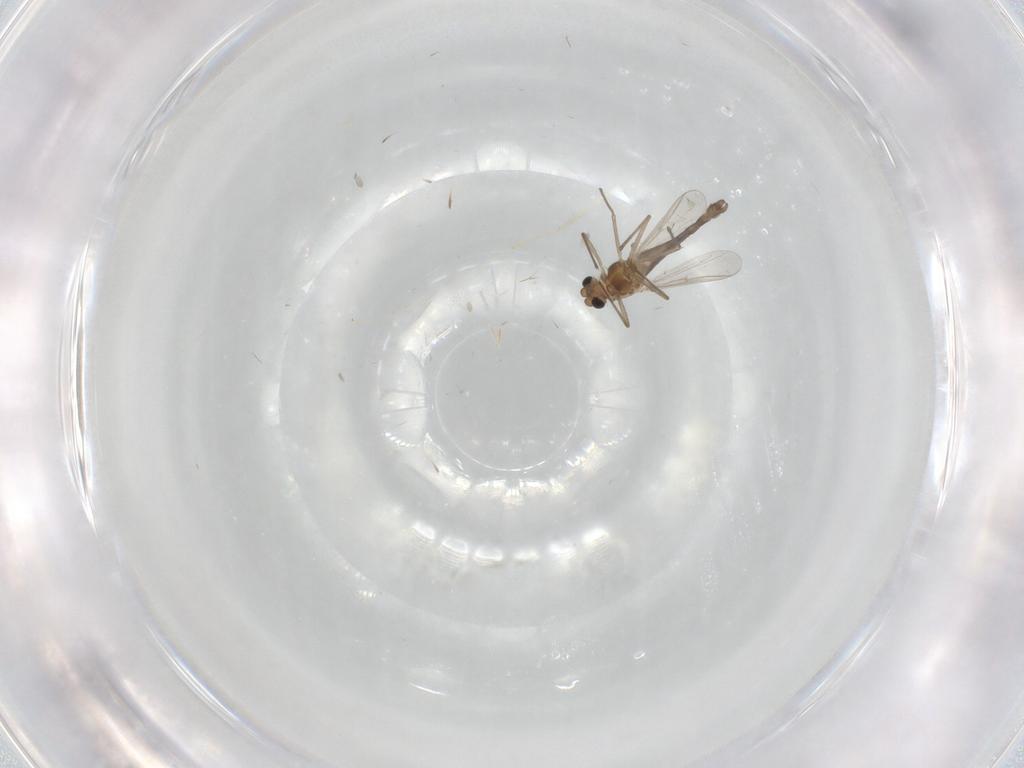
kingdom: Animalia
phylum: Arthropoda
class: Insecta
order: Diptera
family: Chironomidae
